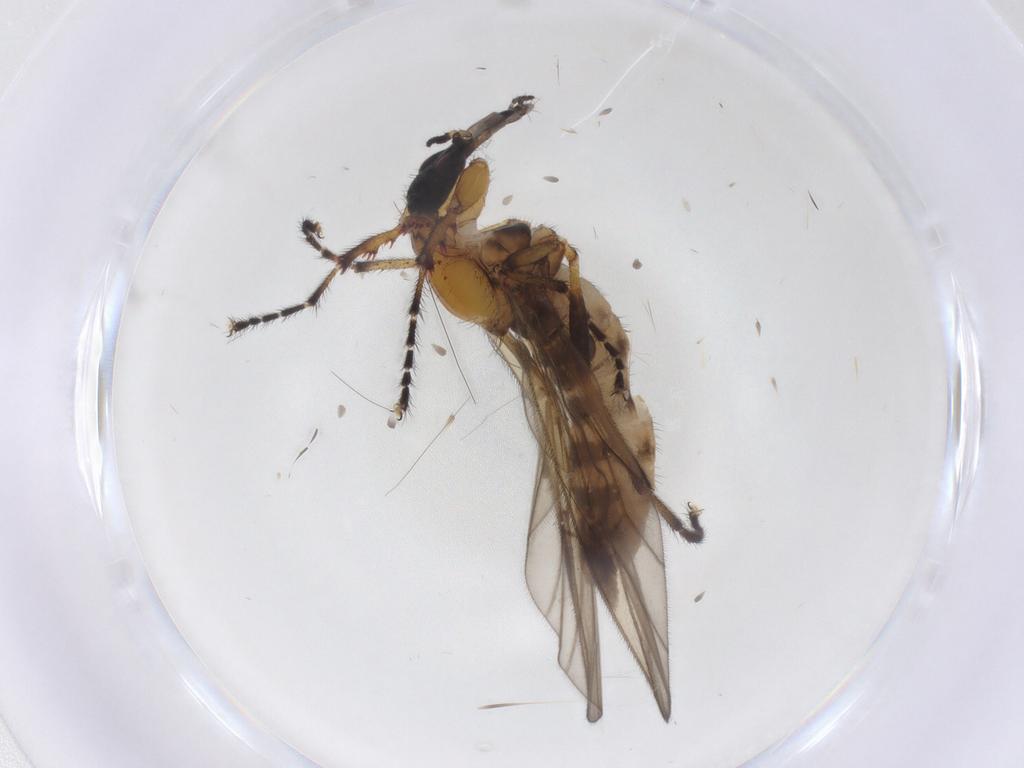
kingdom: Animalia
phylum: Arthropoda
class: Insecta
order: Diptera
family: Bibionidae
